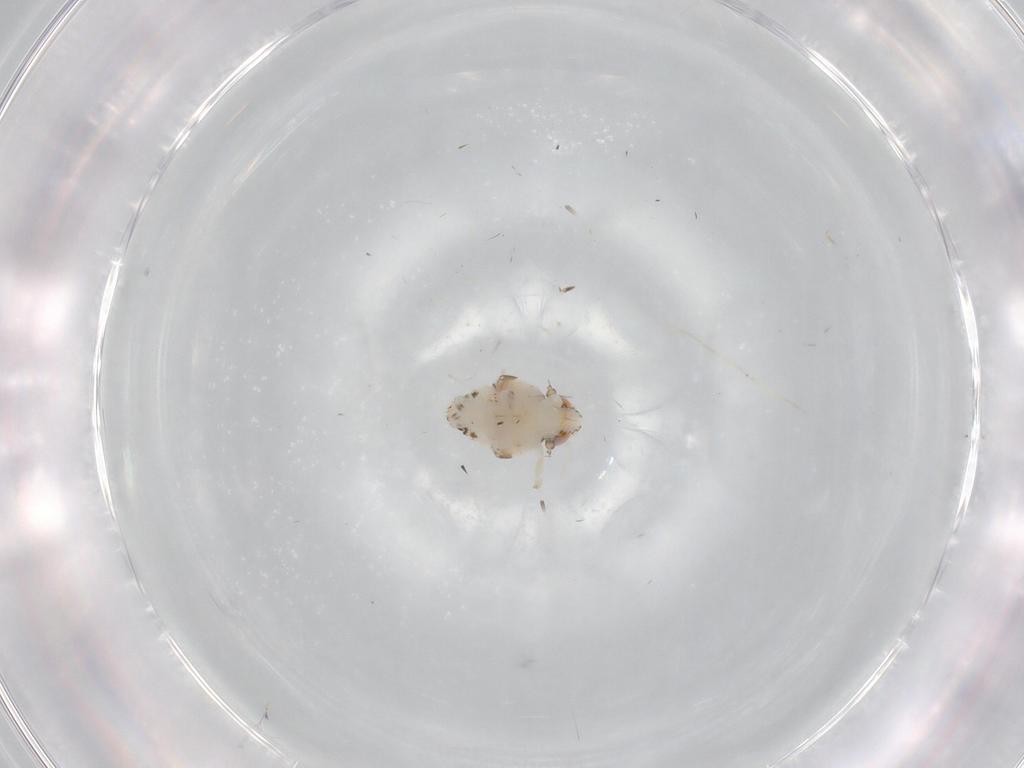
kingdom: Animalia
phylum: Arthropoda
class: Insecta
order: Hemiptera
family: Nogodinidae
